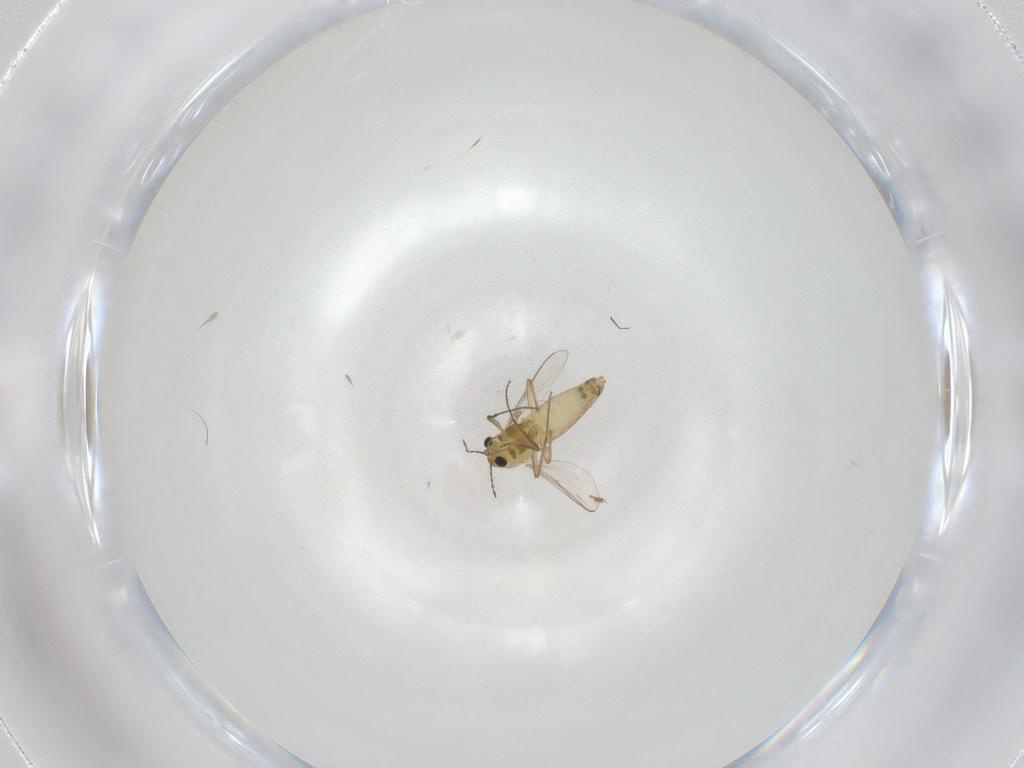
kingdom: Animalia
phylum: Arthropoda
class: Insecta
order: Diptera
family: Chironomidae
